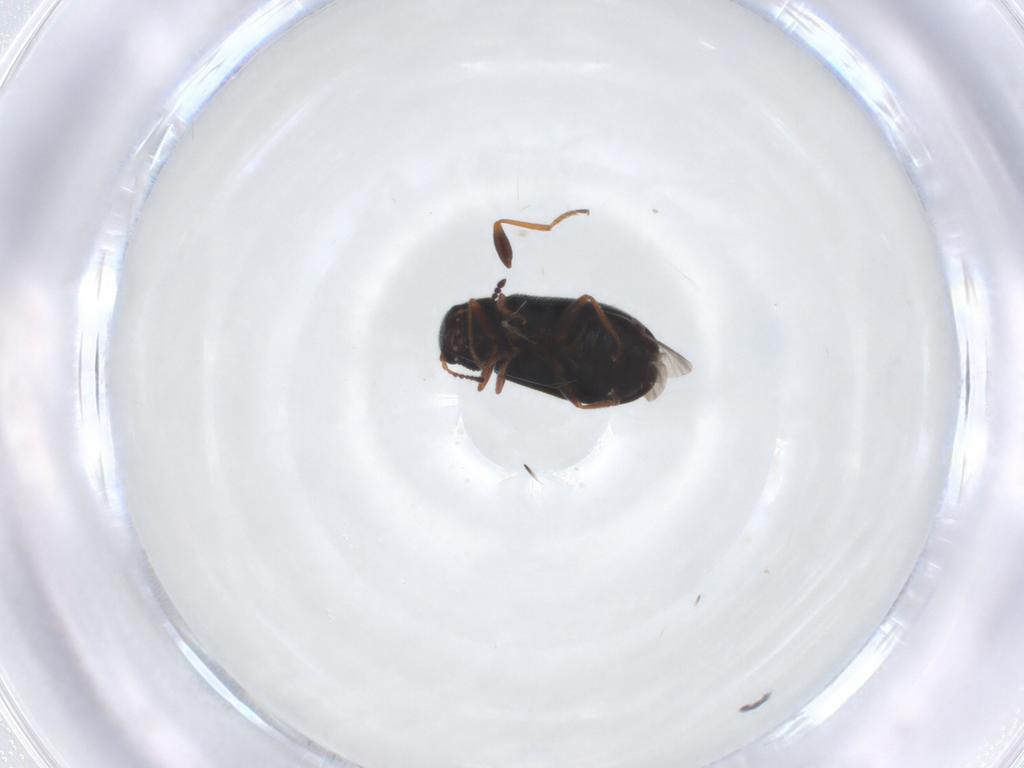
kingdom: Animalia
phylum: Arthropoda
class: Insecta
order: Coleoptera
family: Melyridae
